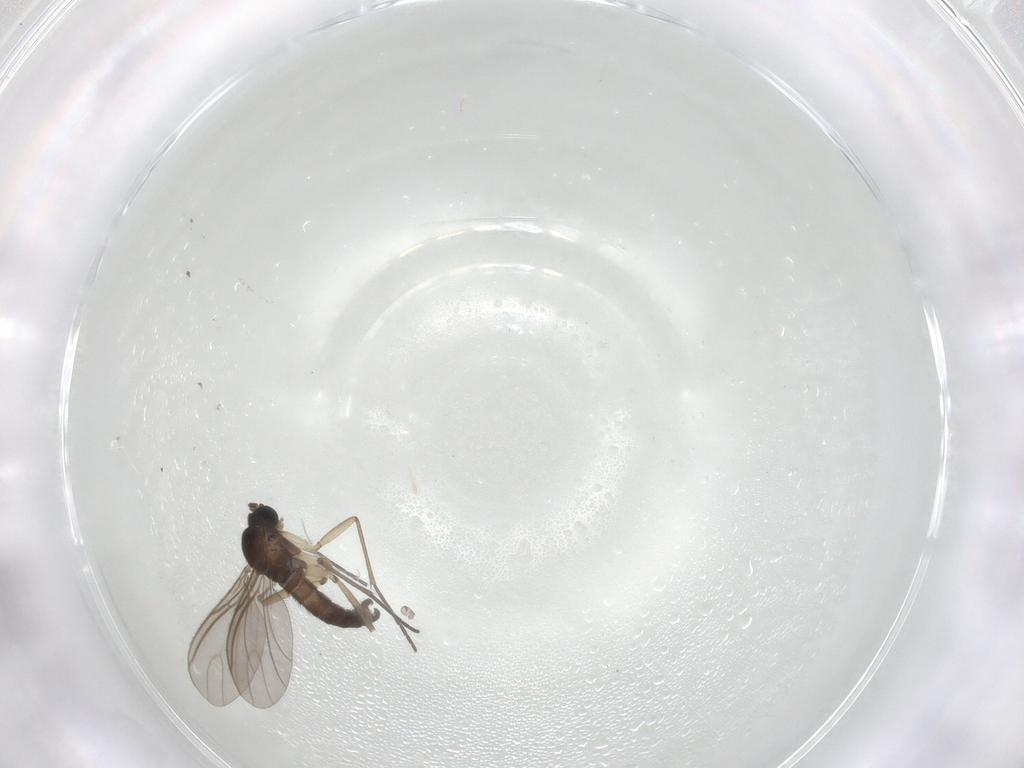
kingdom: Animalia
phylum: Arthropoda
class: Insecta
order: Diptera
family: Sciaridae
